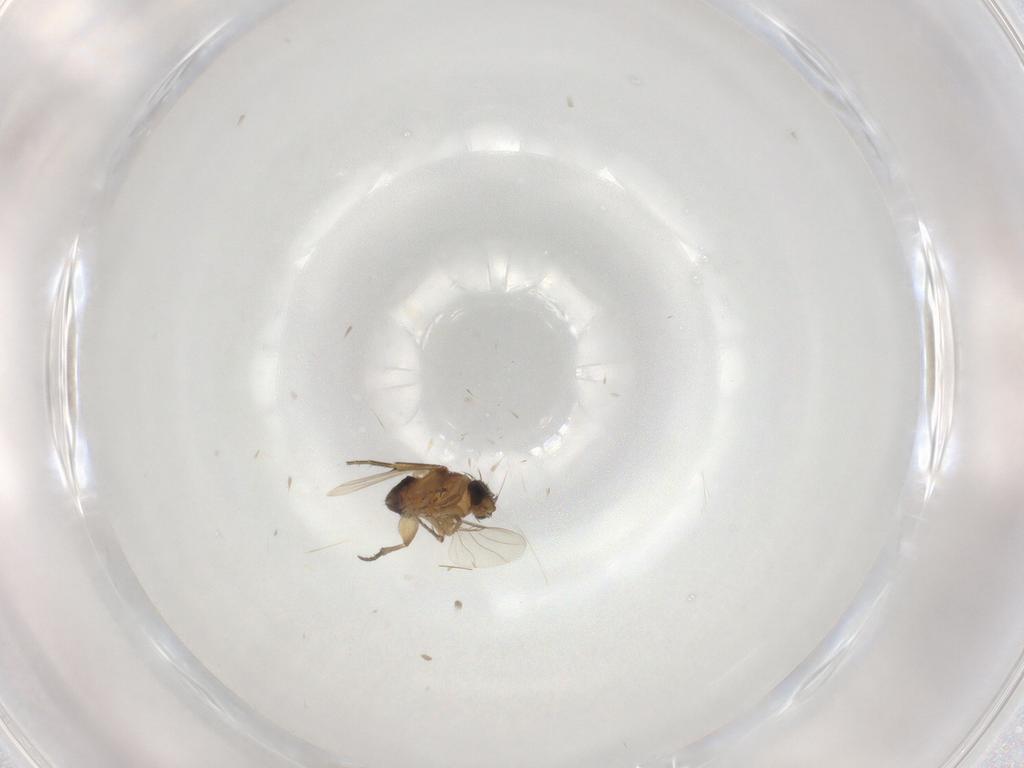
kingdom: Animalia
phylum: Arthropoda
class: Insecta
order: Diptera
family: Phoridae
